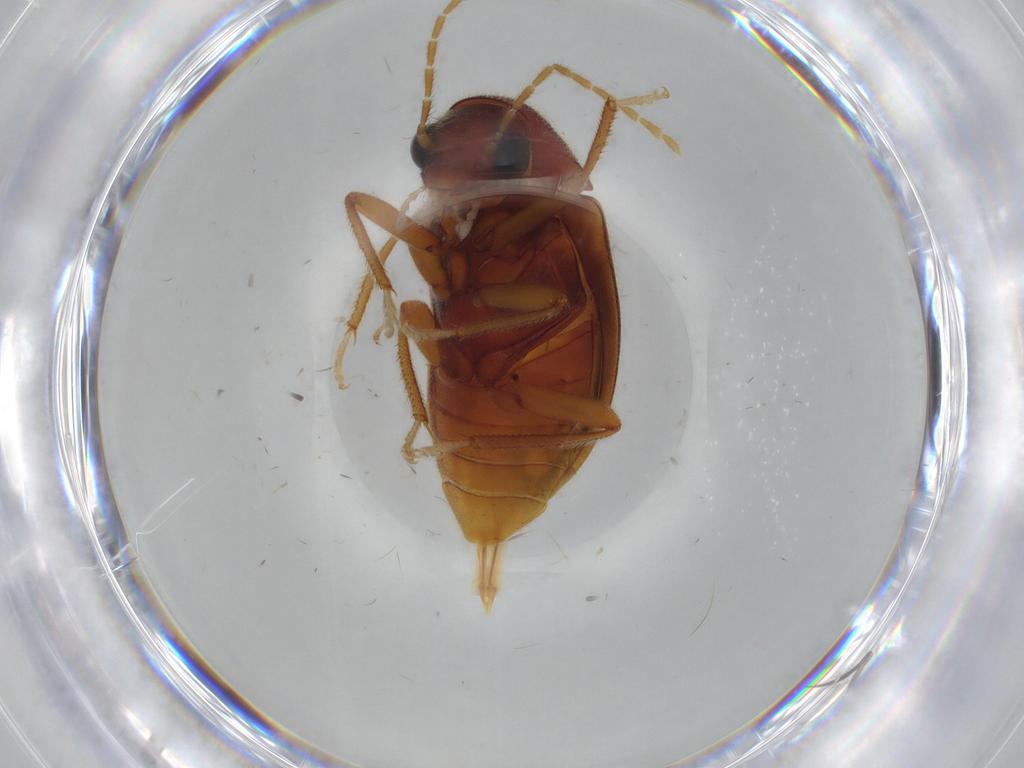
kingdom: Animalia
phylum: Arthropoda
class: Insecta
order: Coleoptera
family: Ptilodactylidae
